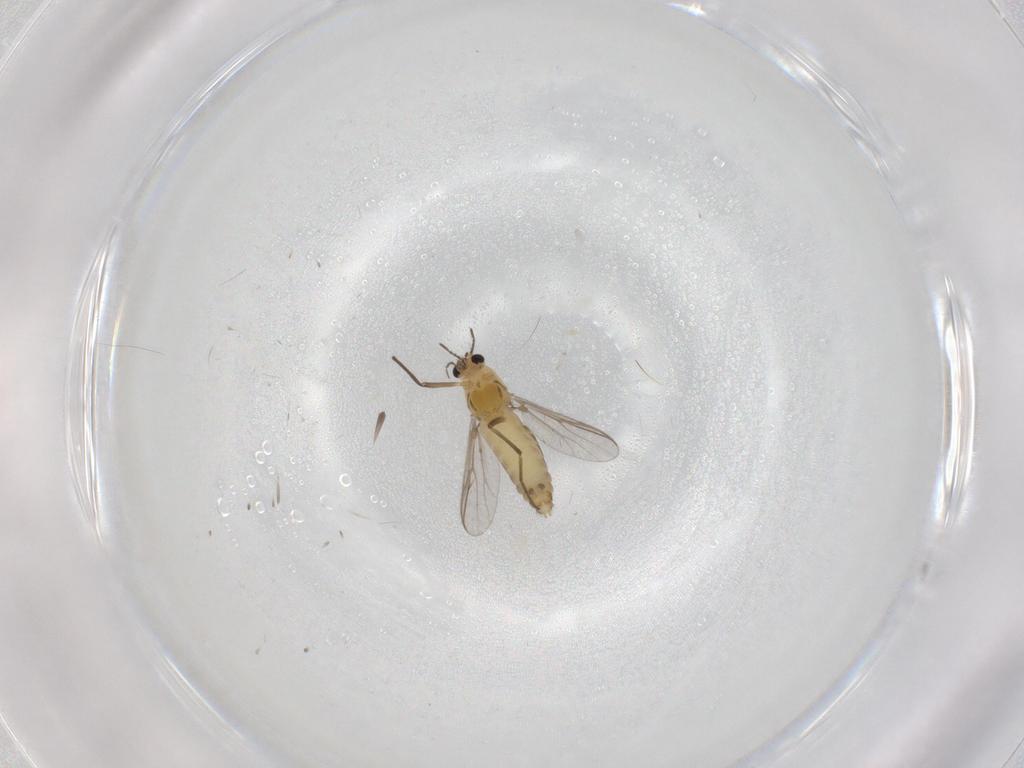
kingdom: Animalia
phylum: Arthropoda
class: Insecta
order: Diptera
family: Chironomidae
